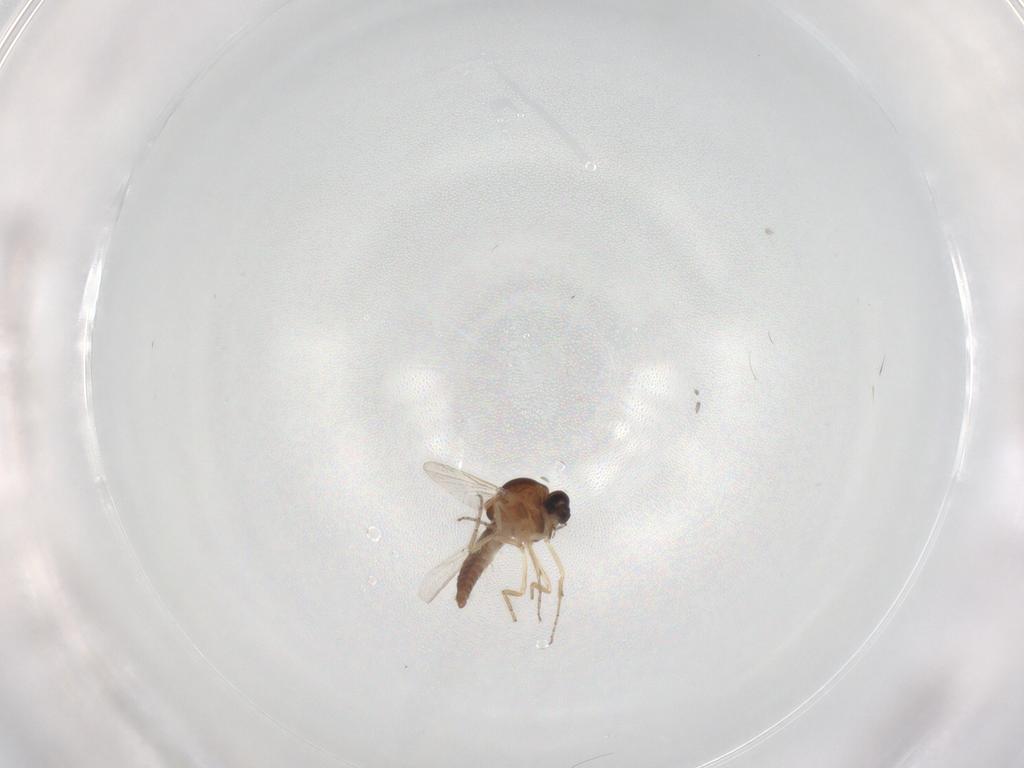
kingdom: Animalia
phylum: Arthropoda
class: Insecta
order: Diptera
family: Ceratopogonidae
